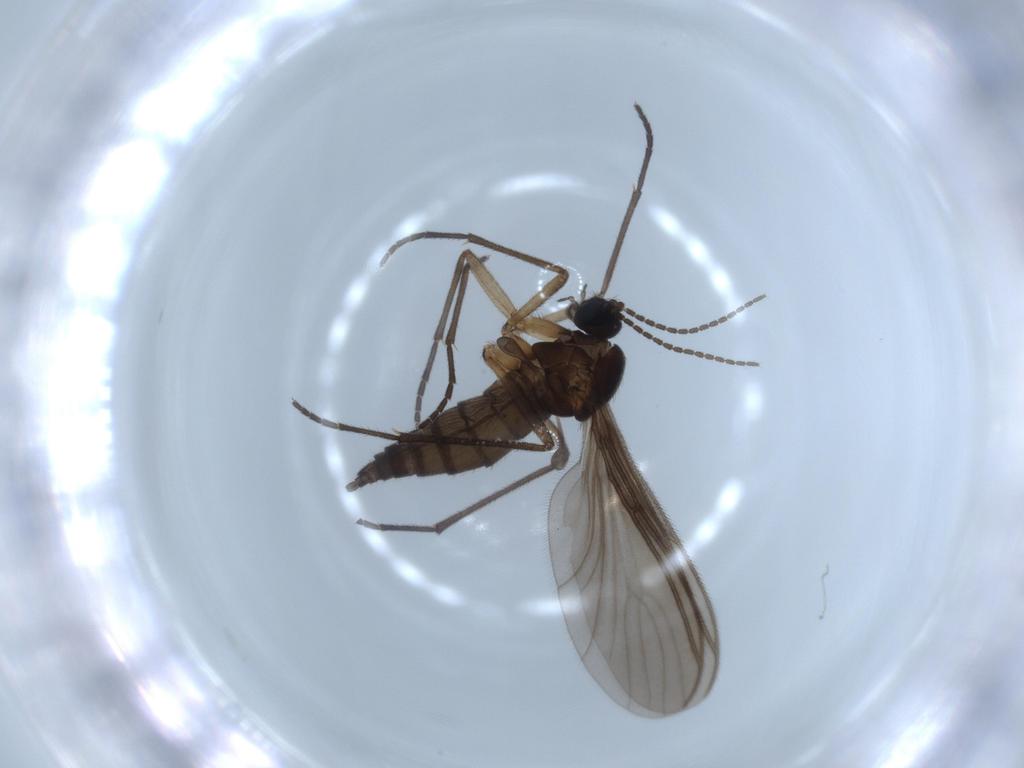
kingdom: Animalia
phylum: Arthropoda
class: Insecta
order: Diptera
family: Sciaridae
